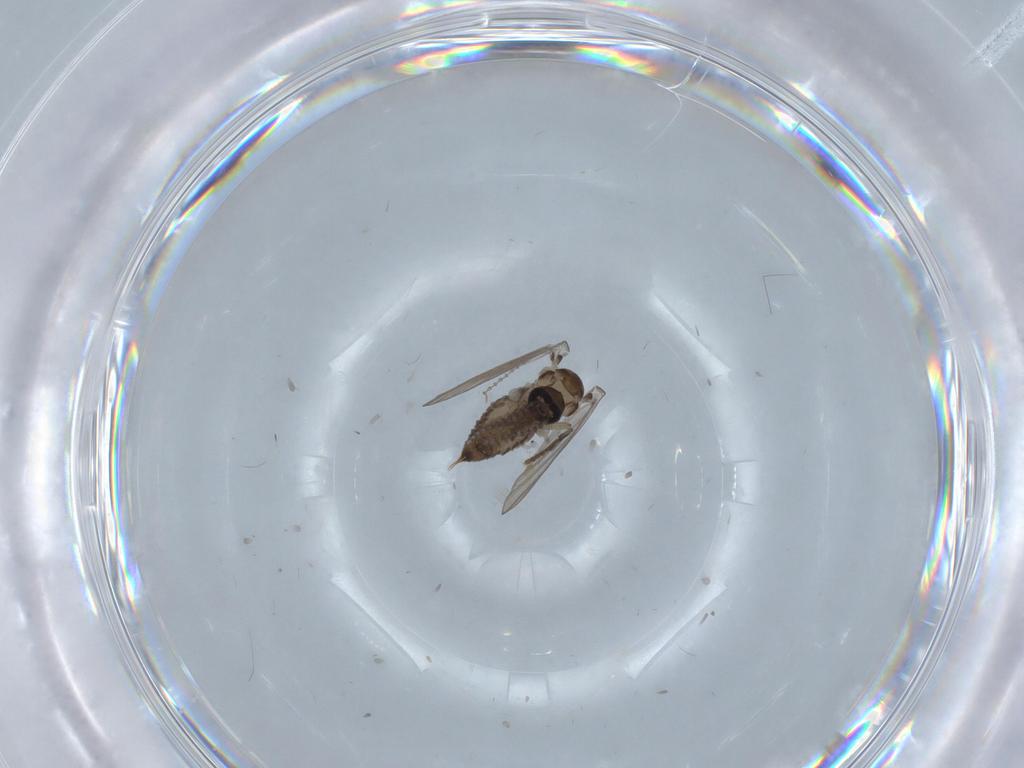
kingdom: Animalia
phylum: Arthropoda
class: Insecta
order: Diptera
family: Psychodidae
